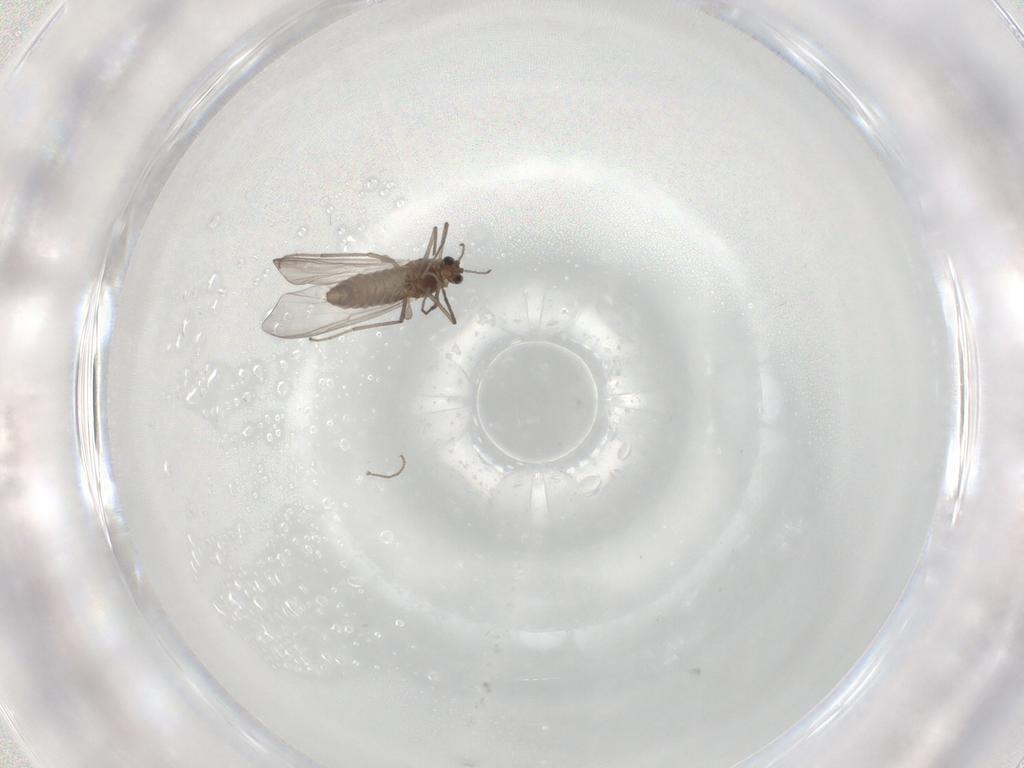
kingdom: Animalia
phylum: Arthropoda
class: Insecta
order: Diptera
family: Chironomidae
